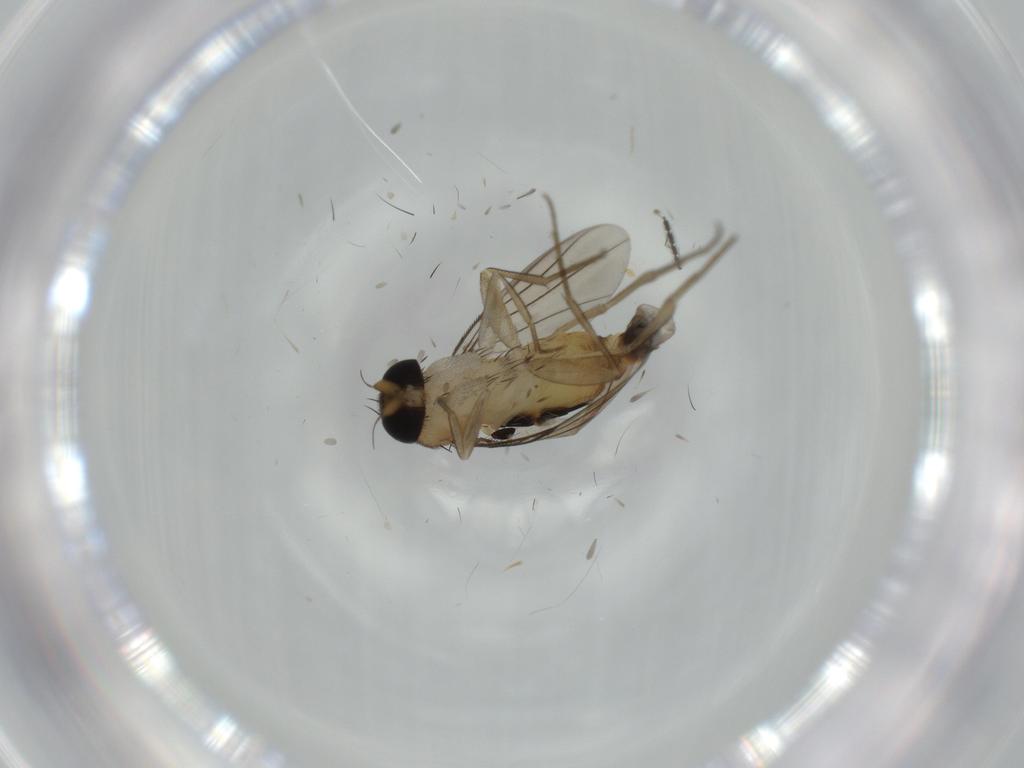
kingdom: Animalia
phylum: Arthropoda
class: Insecta
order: Diptera
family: Phoridae
